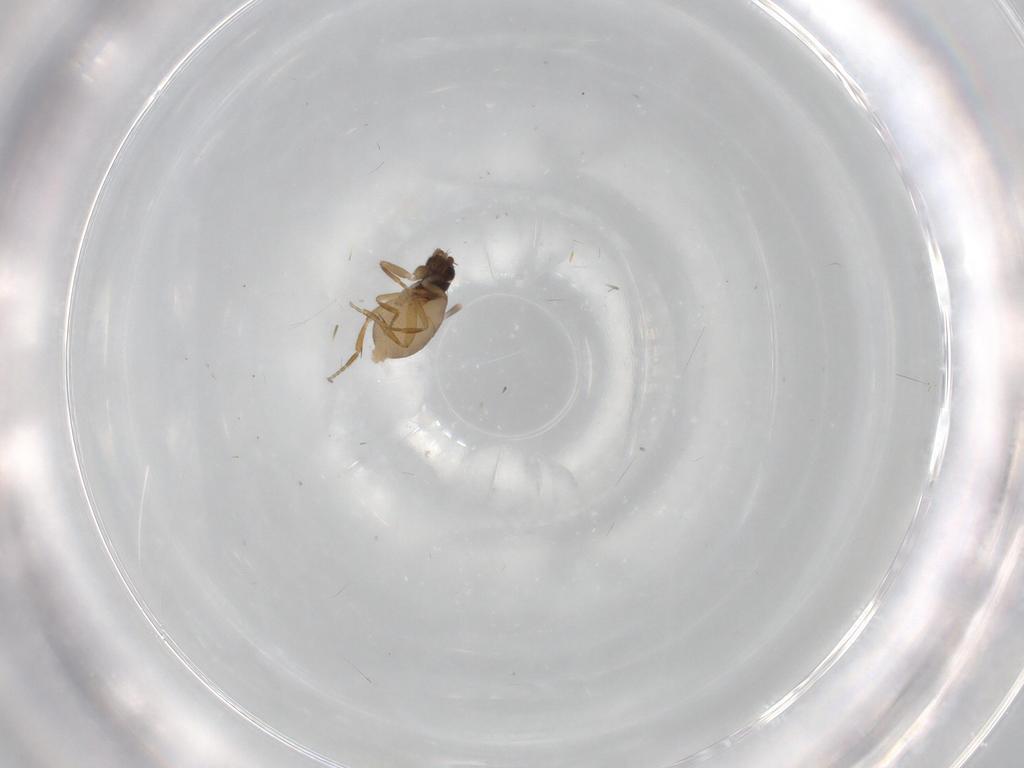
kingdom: Animalia
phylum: Arthropoda
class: Insecta
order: Diptera
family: Phoridae
